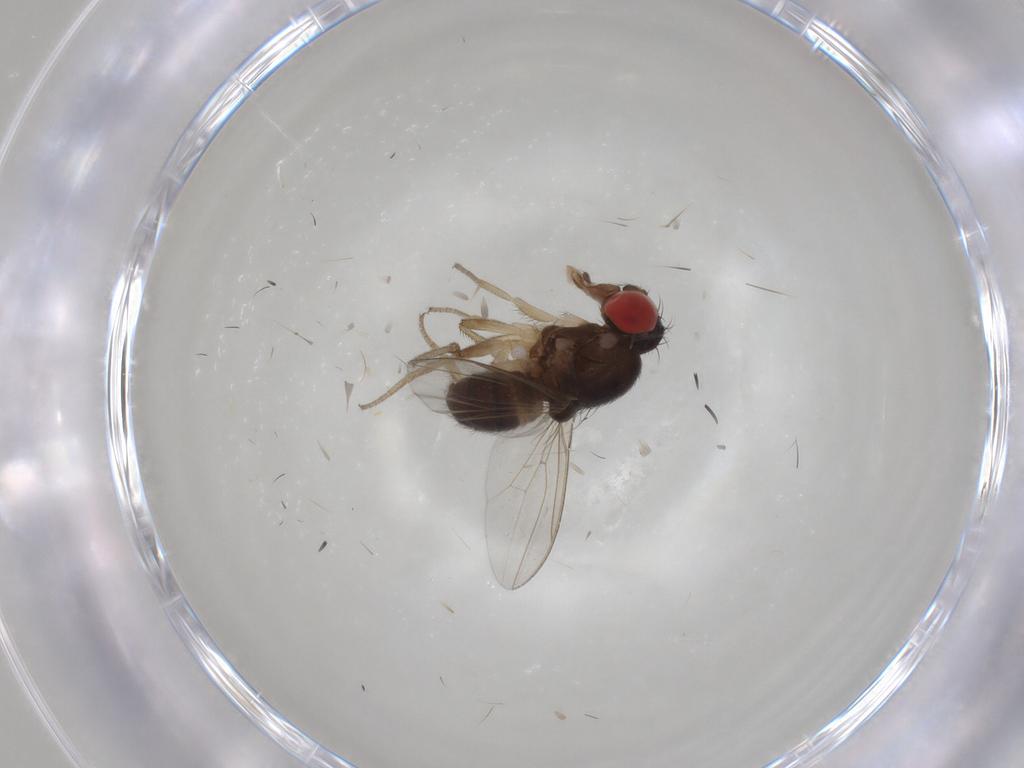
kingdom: Animalia
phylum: Arthropoda
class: Insecta
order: Diptera
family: Drosophilidae
